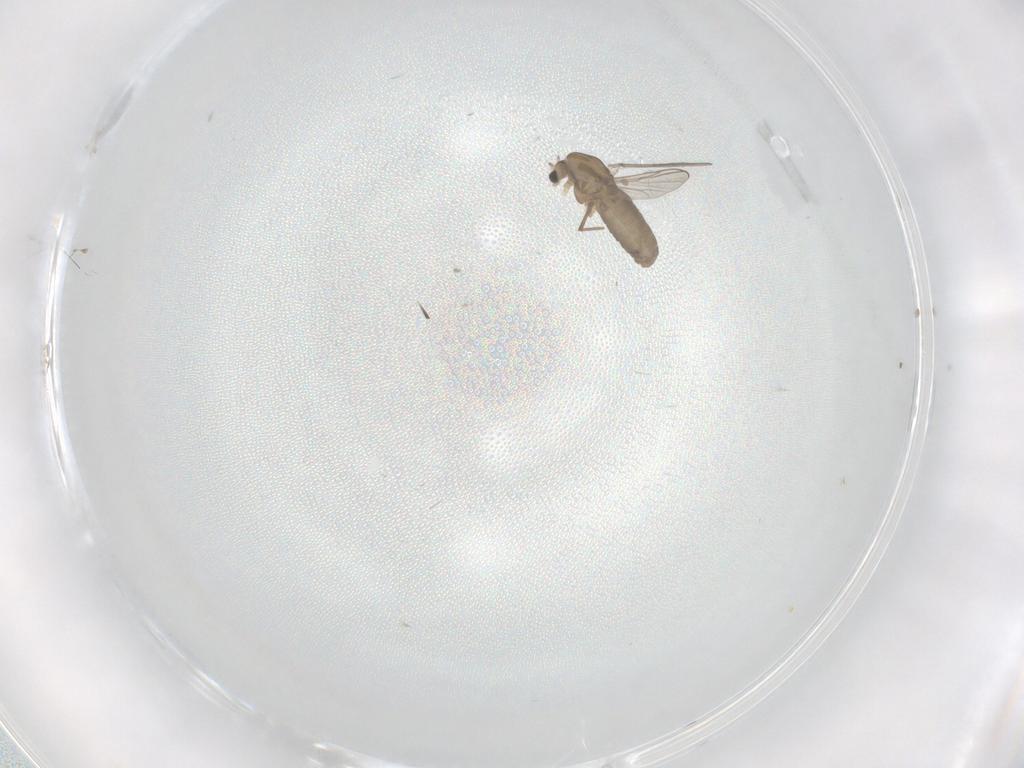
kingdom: Animalia
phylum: Arthropoda
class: Insecta
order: Diptera
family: Chironomidae
